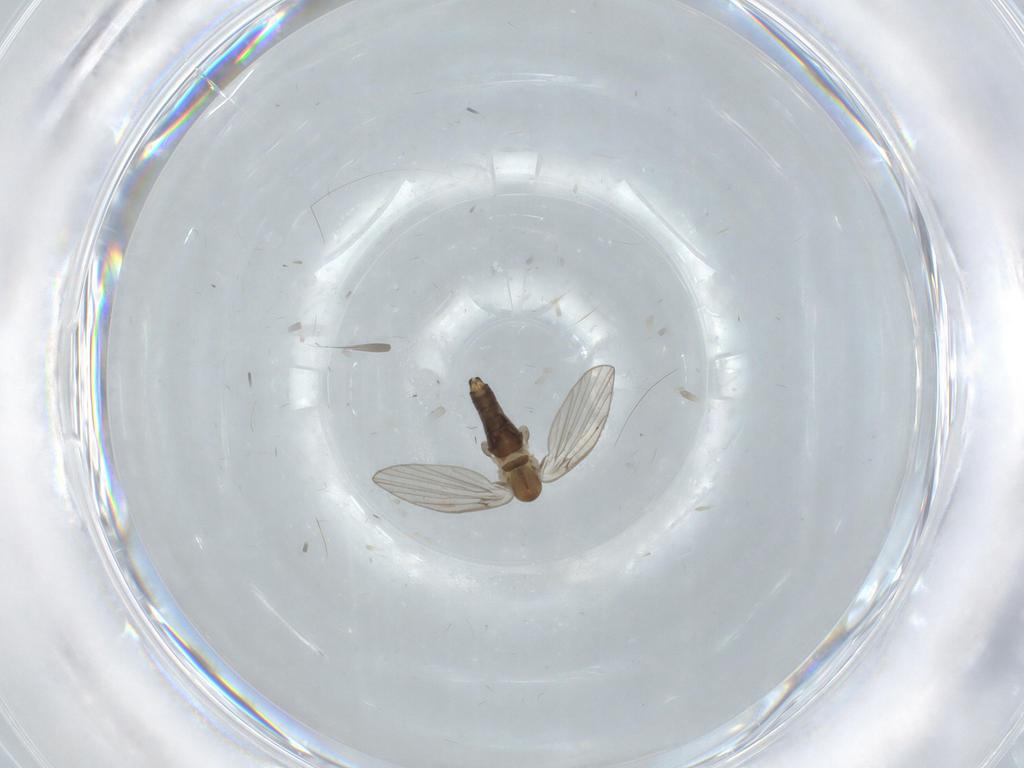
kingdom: Animalia
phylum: Arthropoda
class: Insecta
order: Diptera
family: Psychodidae
